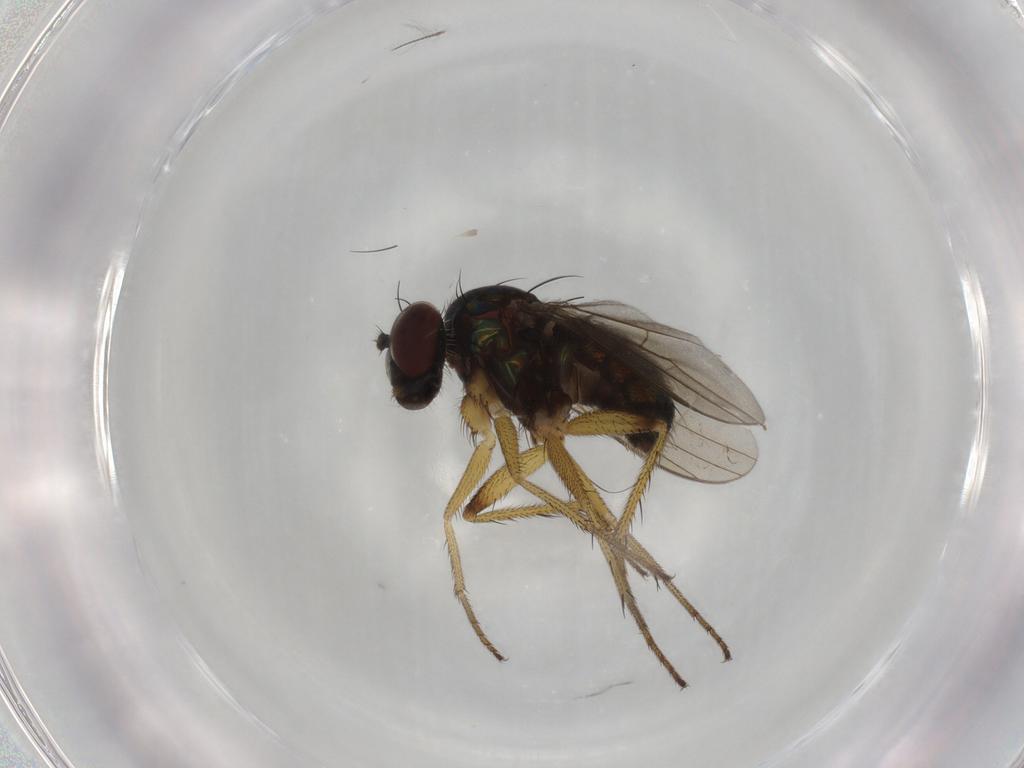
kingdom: Animalia
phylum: Arthropoda
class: Insecta
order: Diptera
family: Dolichopodidae
